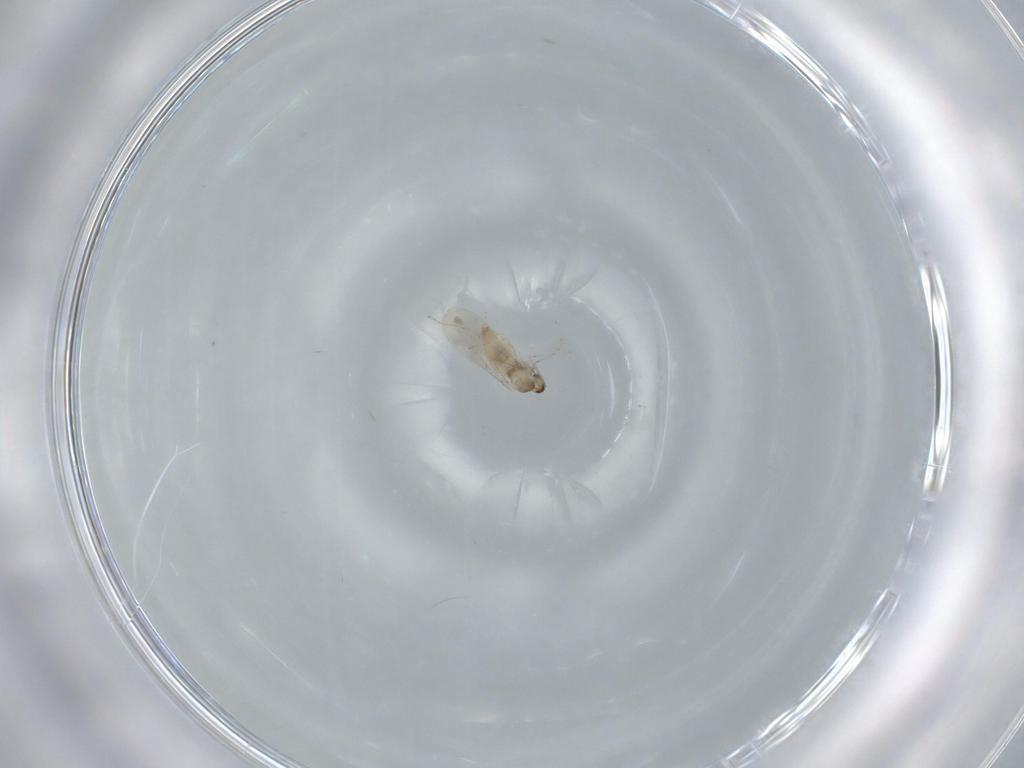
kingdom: Animalia
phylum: Arthropoda
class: Insecta
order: Diptera
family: Cecidomyiidae
